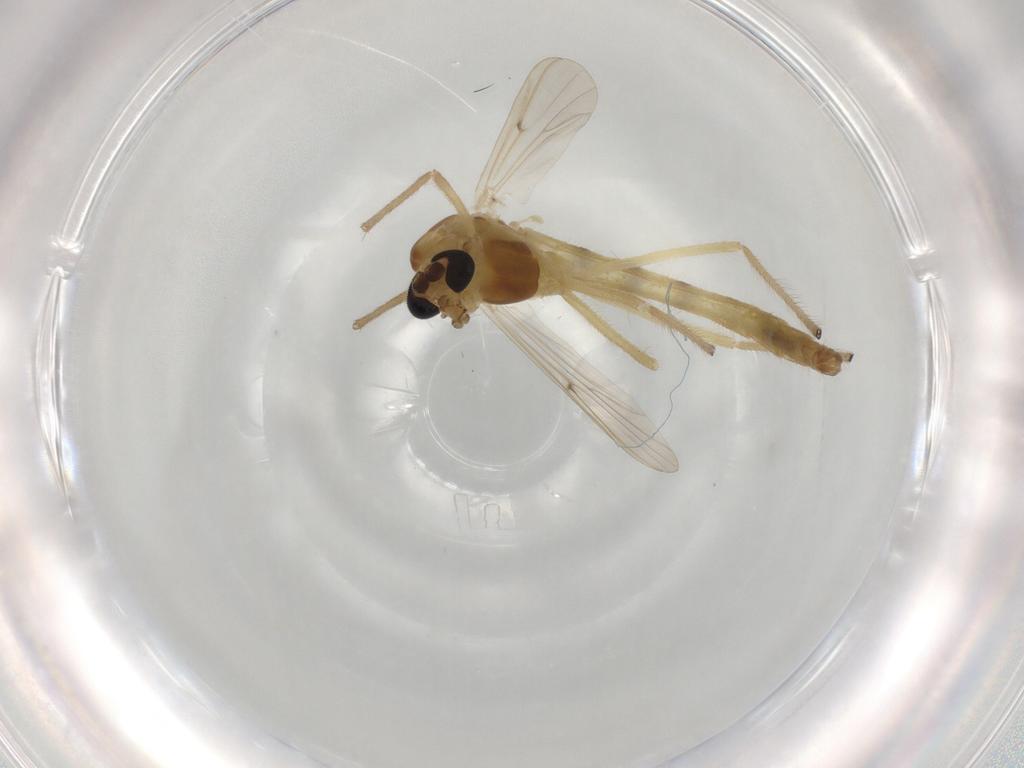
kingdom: Animalia
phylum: Arthropoda
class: Insecta
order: Diptera
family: Chironomidae
